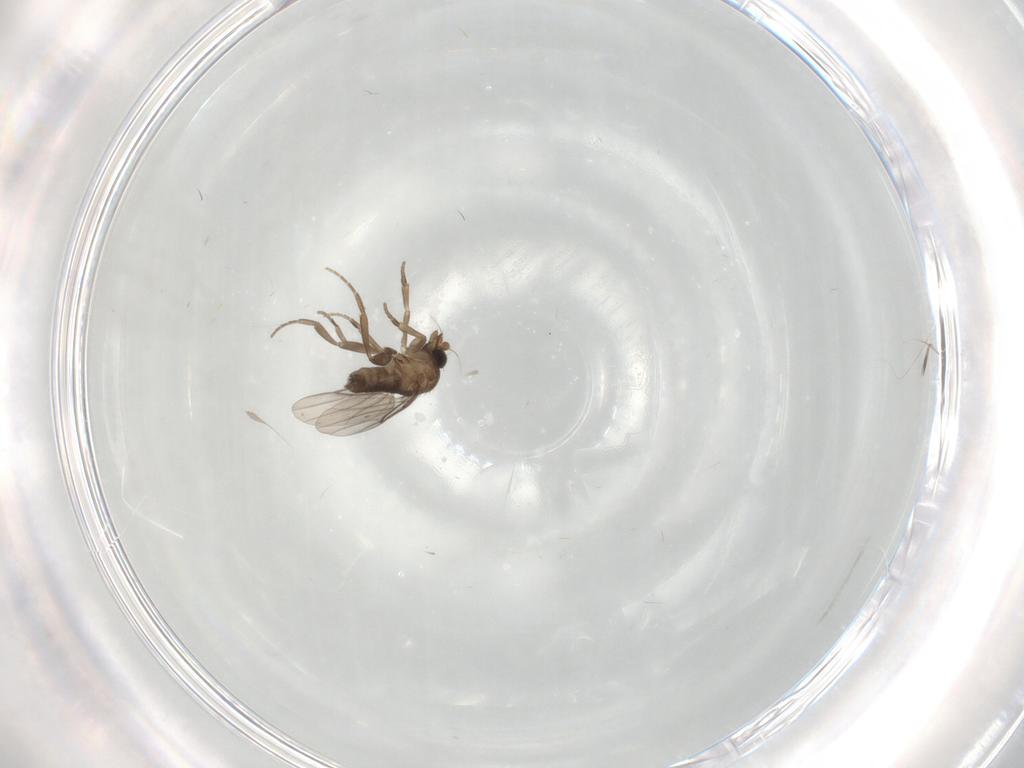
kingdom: Animalia
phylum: Arthropoda
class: Insecta
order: Diptera
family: Phoridae
